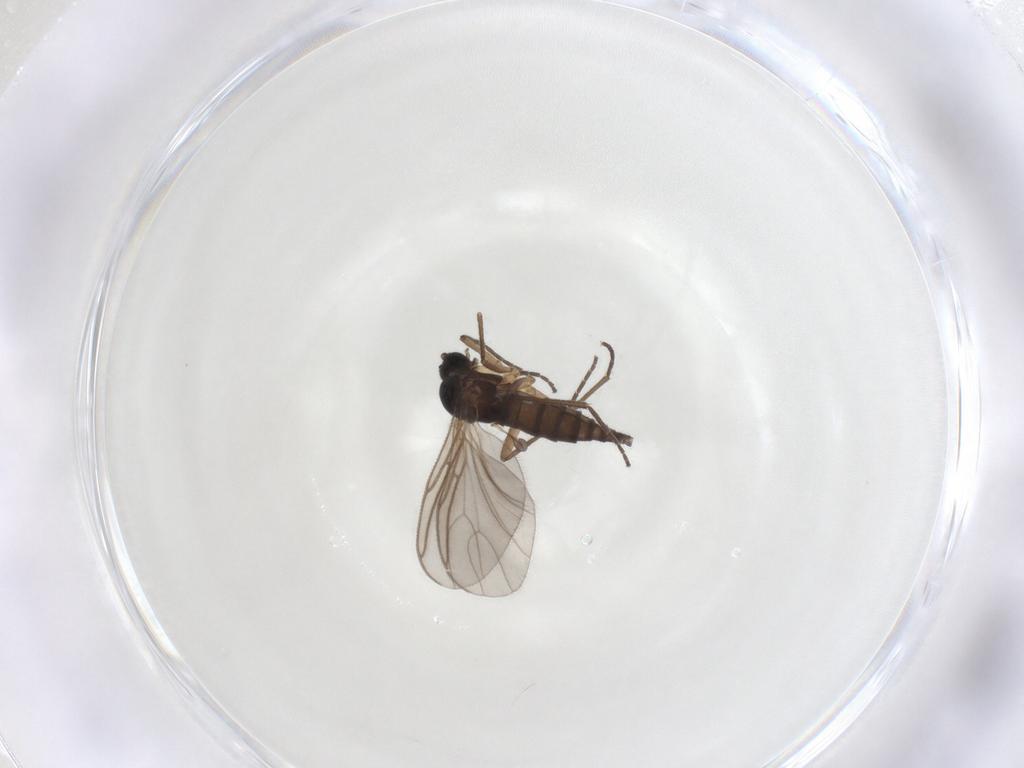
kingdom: Animalia
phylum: Arthropoda
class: Insecta
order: Diptera
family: Sciaridae
